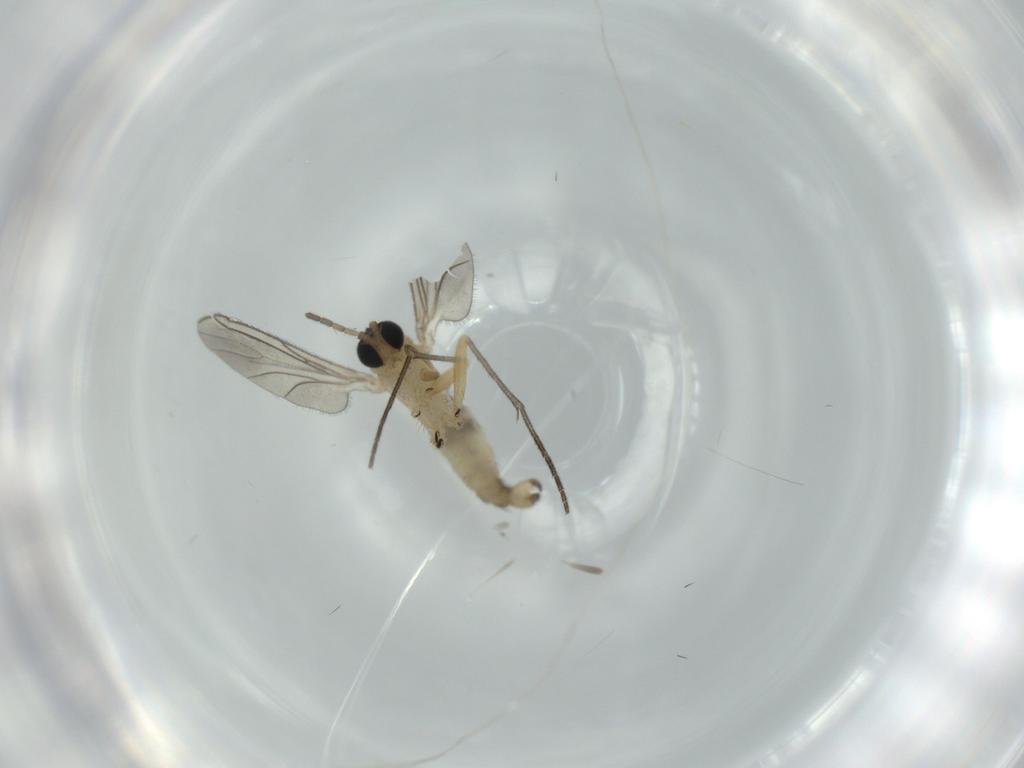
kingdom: Animalia
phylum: Arthropoda
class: Insecta
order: Diptera
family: Sciaridae
